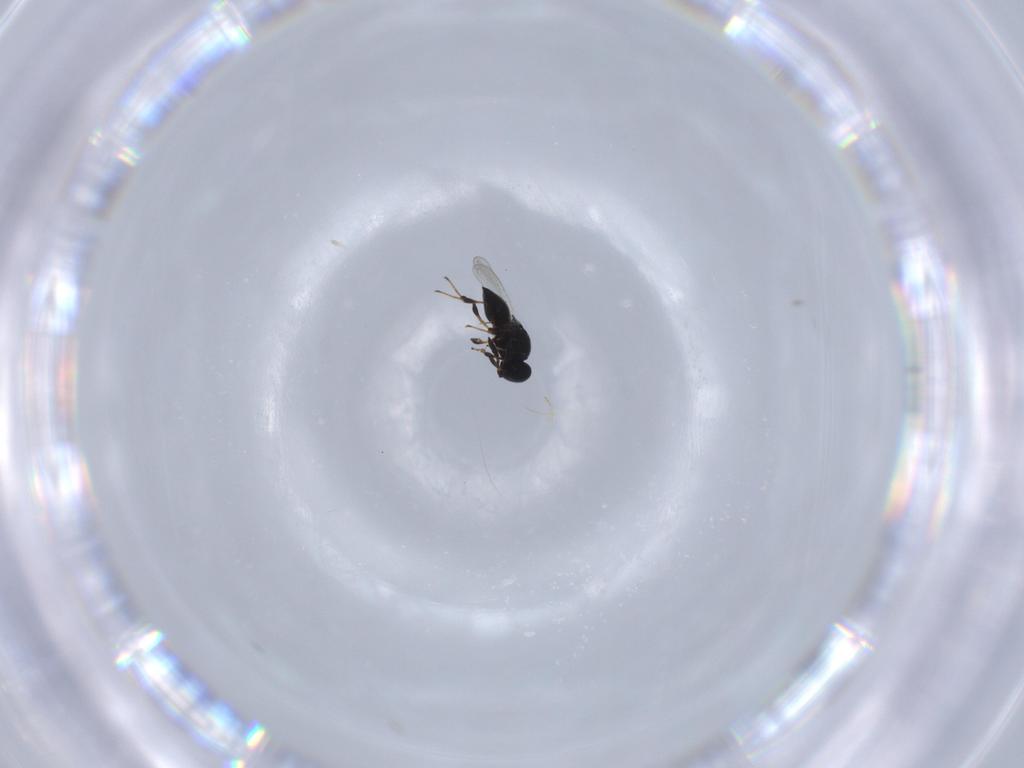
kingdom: Animalia
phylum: Arthropoda
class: Insecta
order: Hymenoptera
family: Platygastridae
